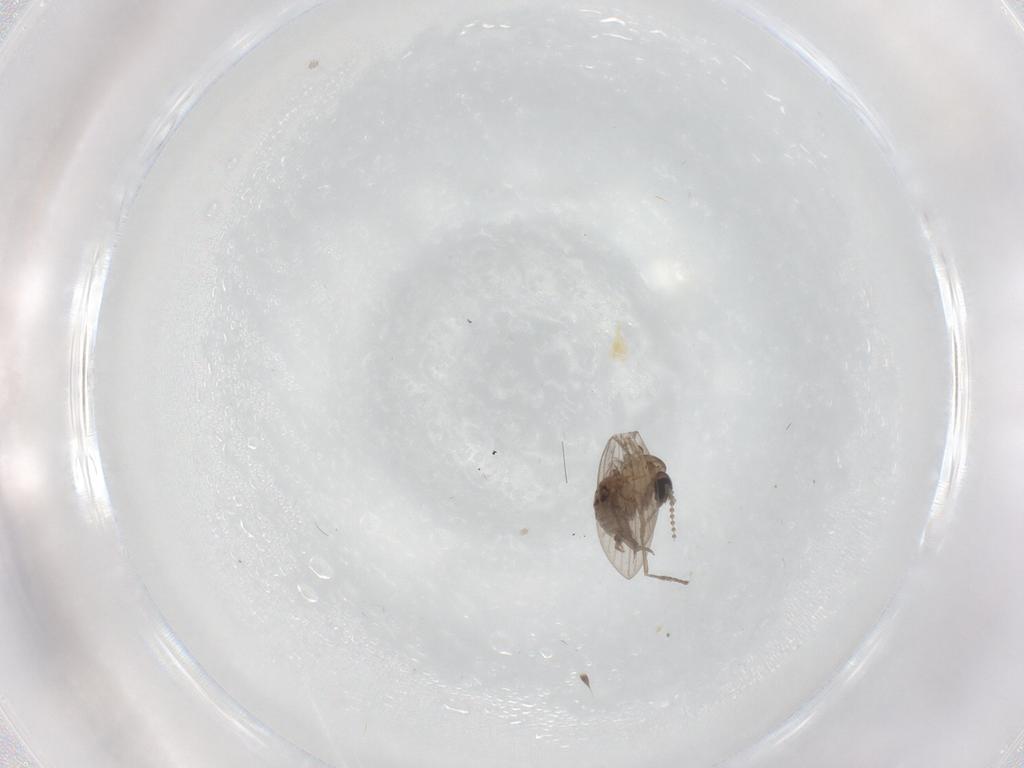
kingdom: Animalia
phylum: Arthropoda
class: Insecta
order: Diptera
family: Psychodidae
